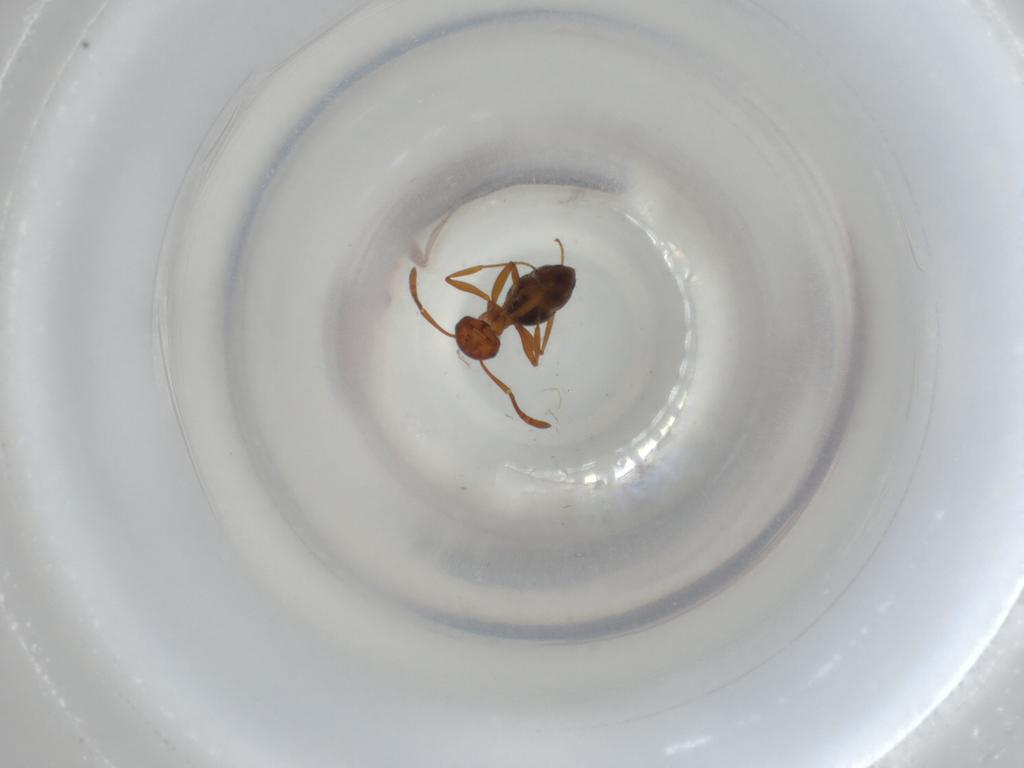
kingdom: Animalia
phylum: Arthropoda
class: Insecta
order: Hymenoptera
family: Formicidae
